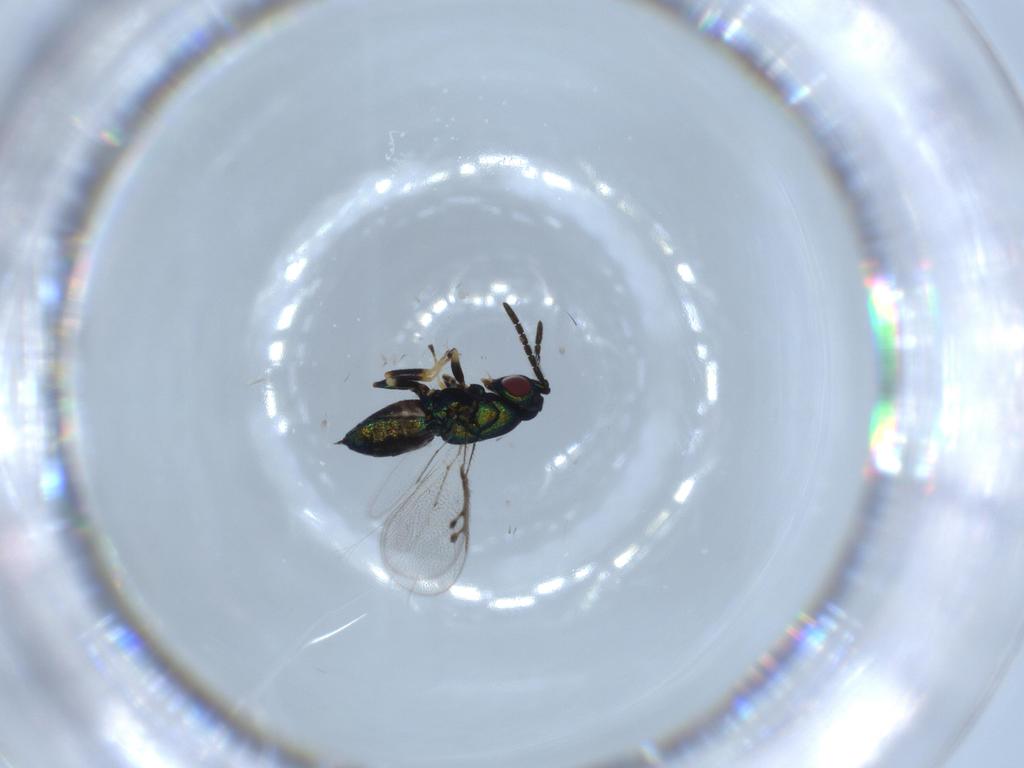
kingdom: Animalia
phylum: Arthropoda
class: Insecta
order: Hymenoptera
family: Pteromalidae
